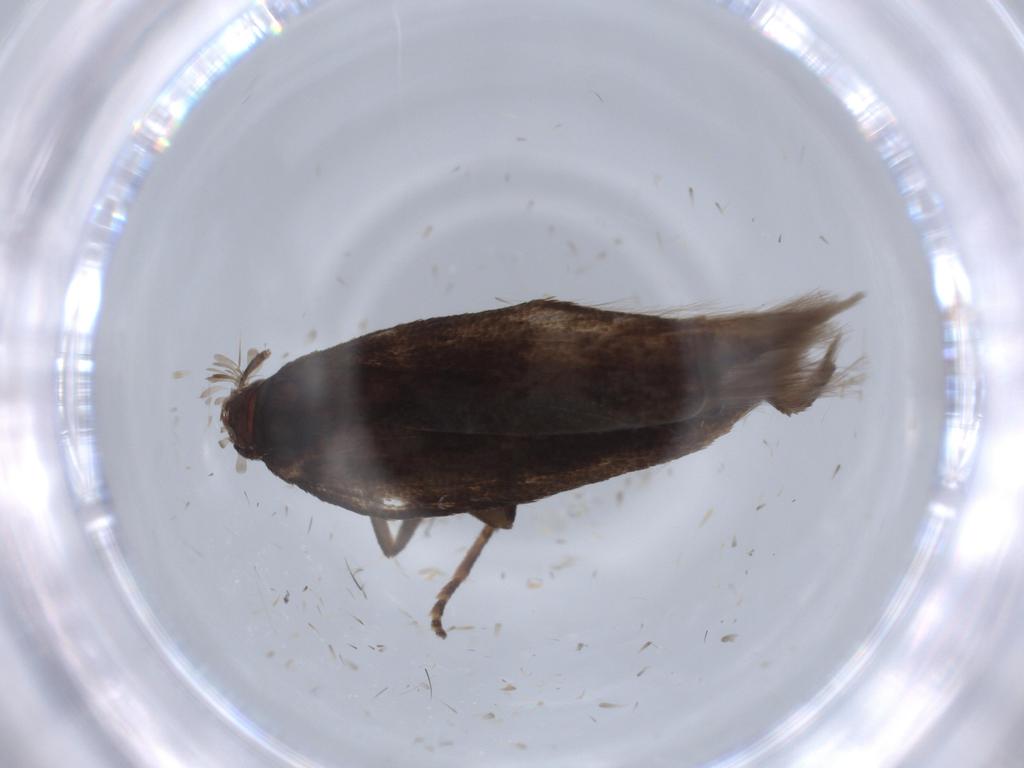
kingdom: Animalia
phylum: Arthropoda
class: Insecta
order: Lepidoptera
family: Gelechiidae
